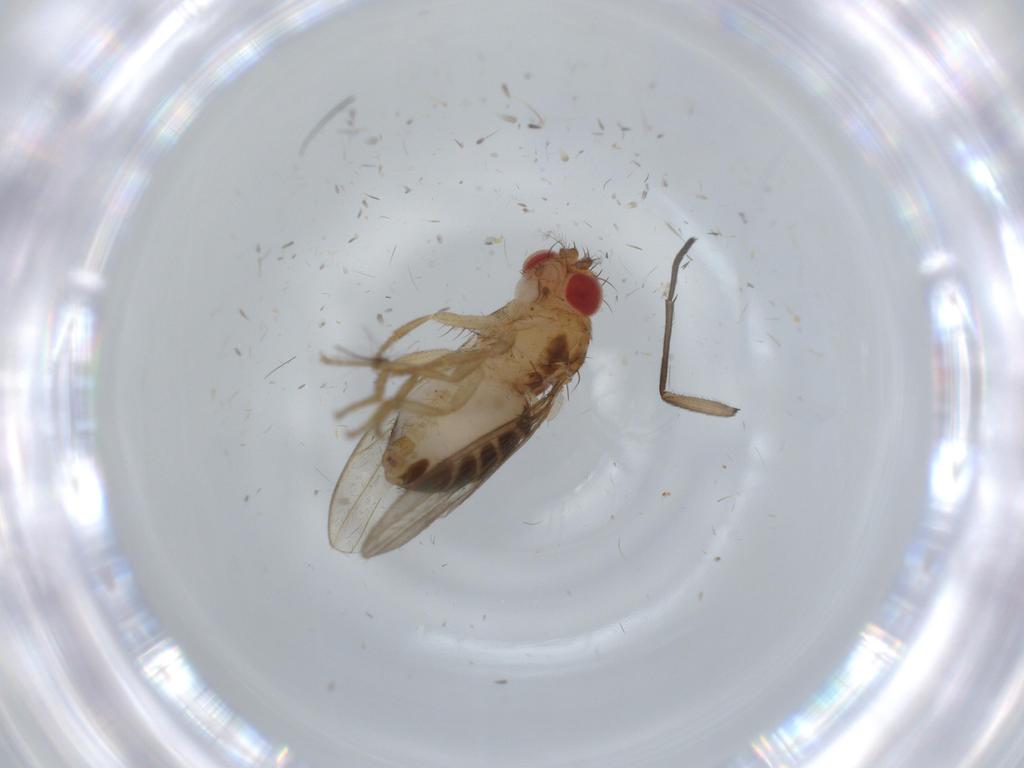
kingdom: Animalia
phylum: Arthropoda
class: Insecta
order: Diptera
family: Sciaridae
